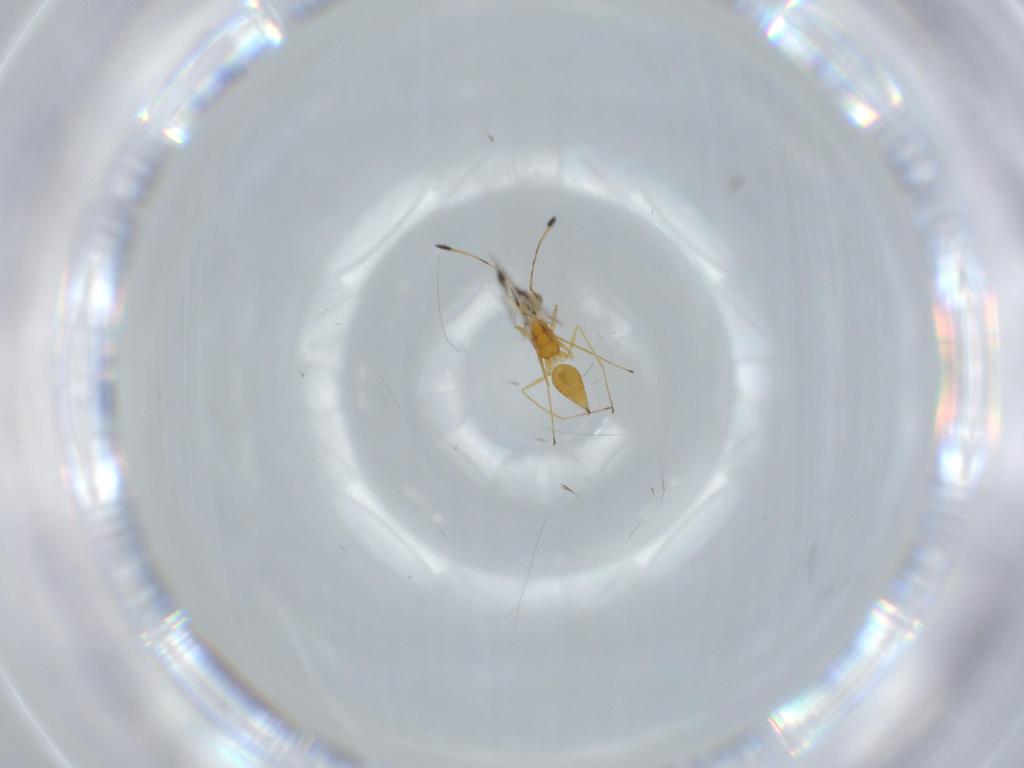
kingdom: Animalia
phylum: Arthropoda
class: Insecta
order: Hymenoptera
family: Mymaridae
